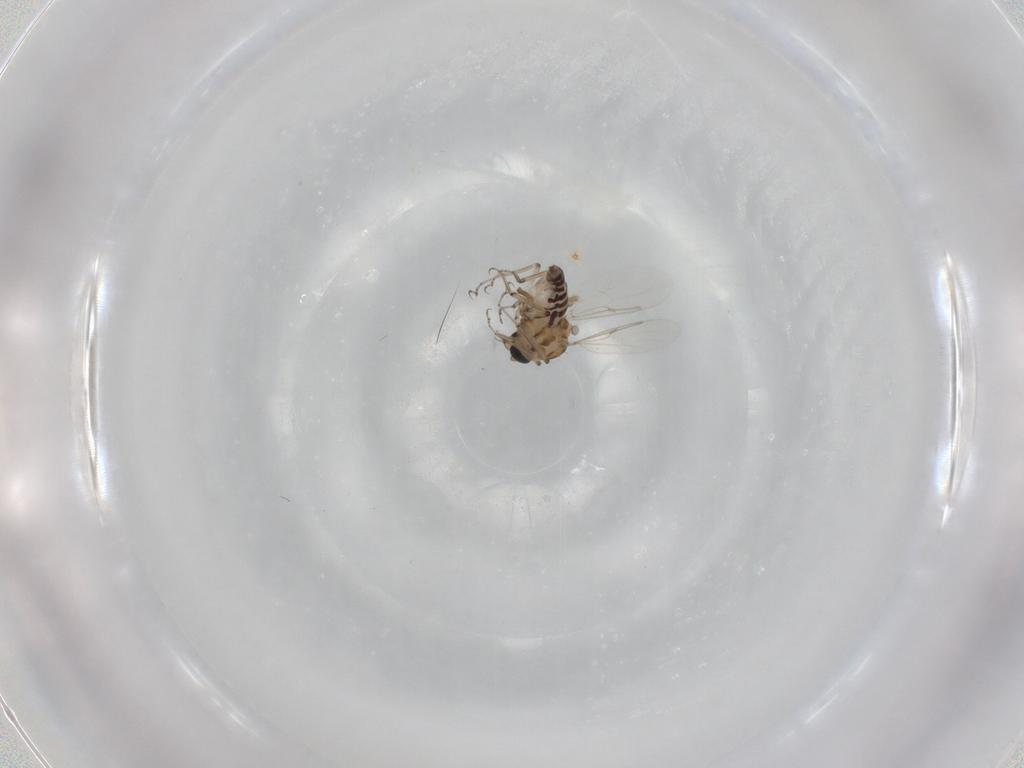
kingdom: Animalia
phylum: Arthropoda
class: Insecta
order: Diptera
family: Ceratopogonidae
